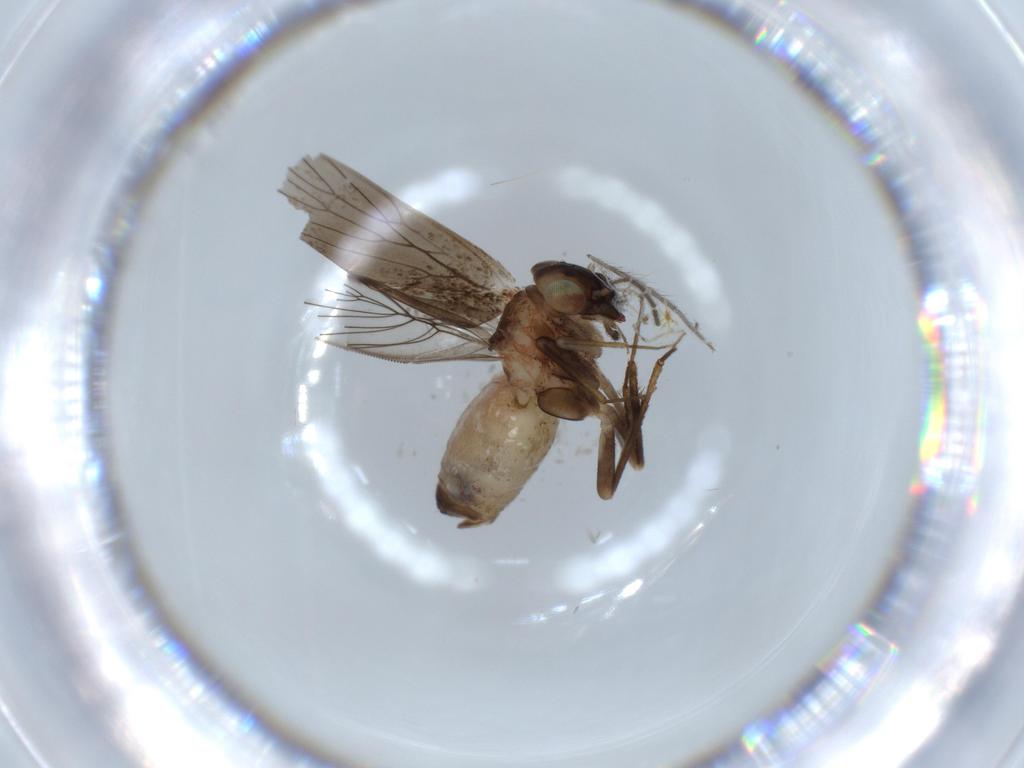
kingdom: Animalia
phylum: Arthropoda
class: Insecta
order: Psocodea
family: Lepidopsocidae
